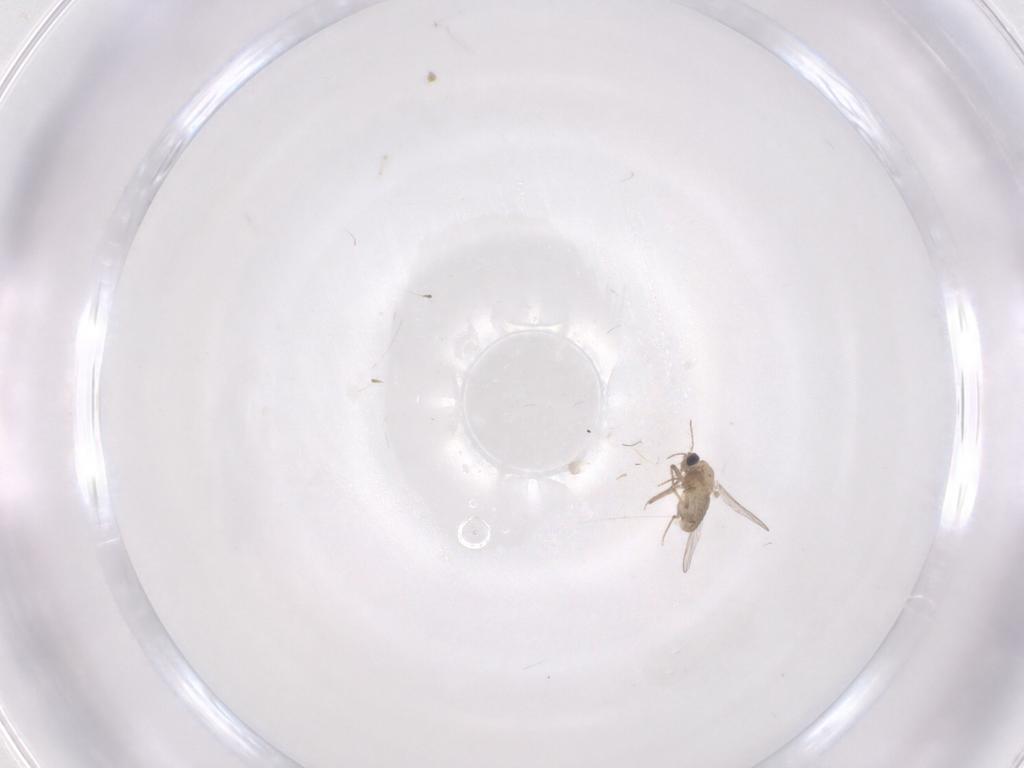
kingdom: Animalia
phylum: Arthropoda
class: Insecta
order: Diptera
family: Chironomidae
